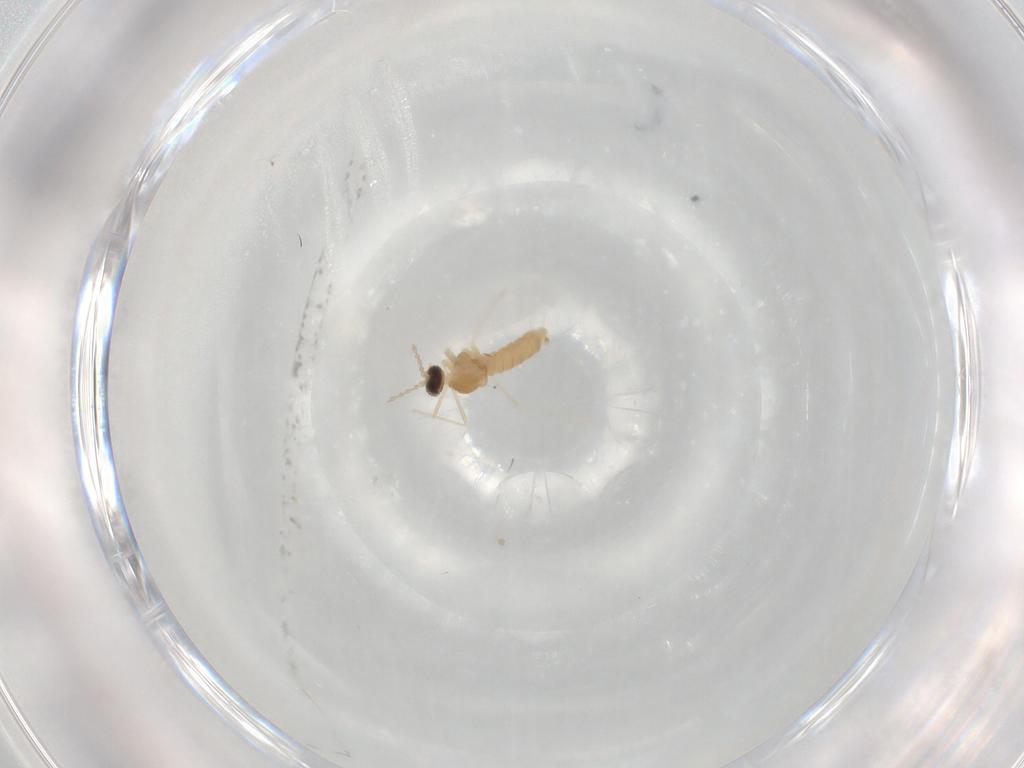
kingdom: Animalia
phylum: Arthropoda
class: Insecta
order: Diptera
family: Cecidomyiidae
